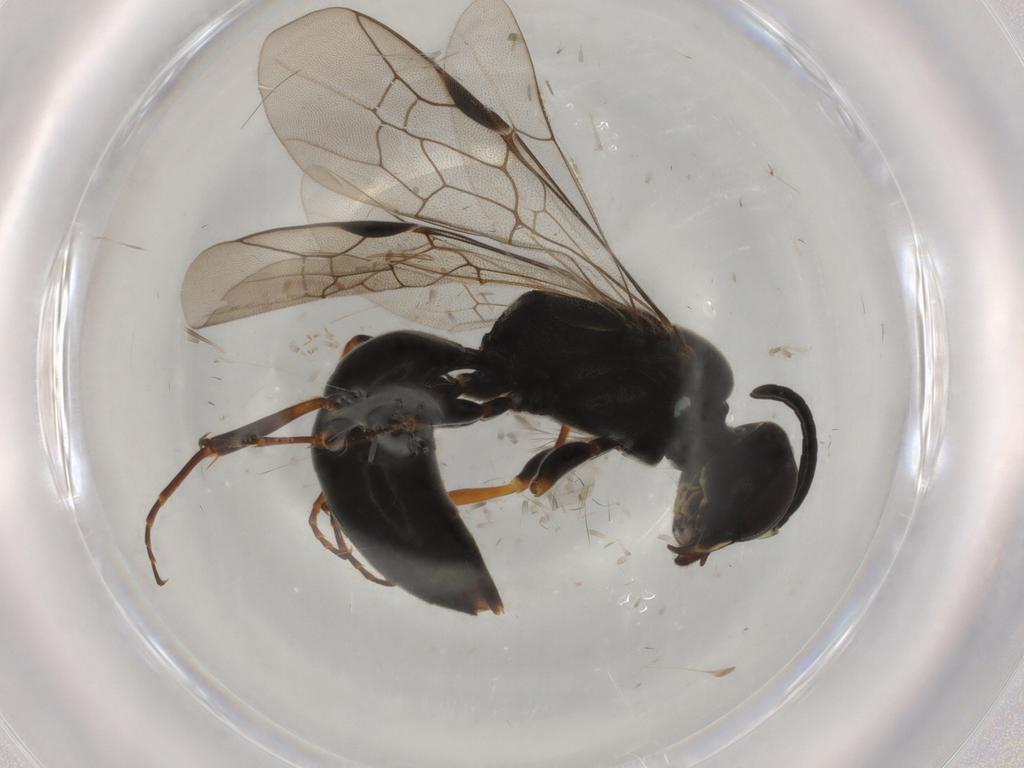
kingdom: Animalia
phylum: Arthropoda
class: Insecta
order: Hymenoptera
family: Pemphredonidae
